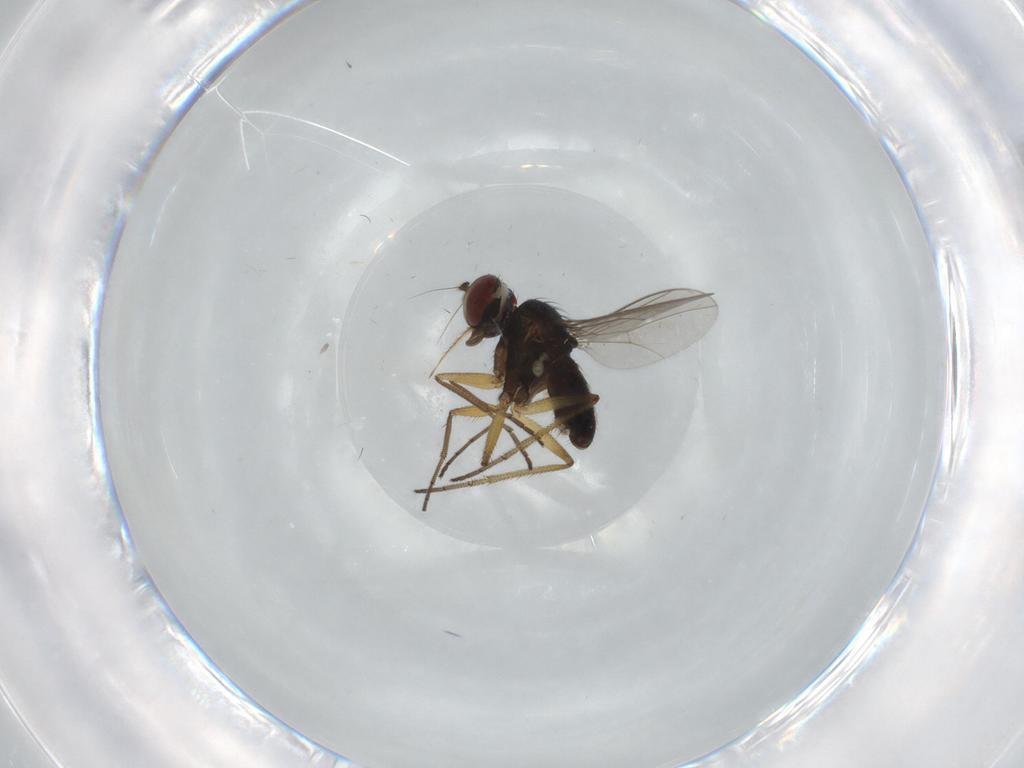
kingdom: Animalia
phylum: Arthropoda
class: Insecta
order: Diptera
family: Dolichopodidae
